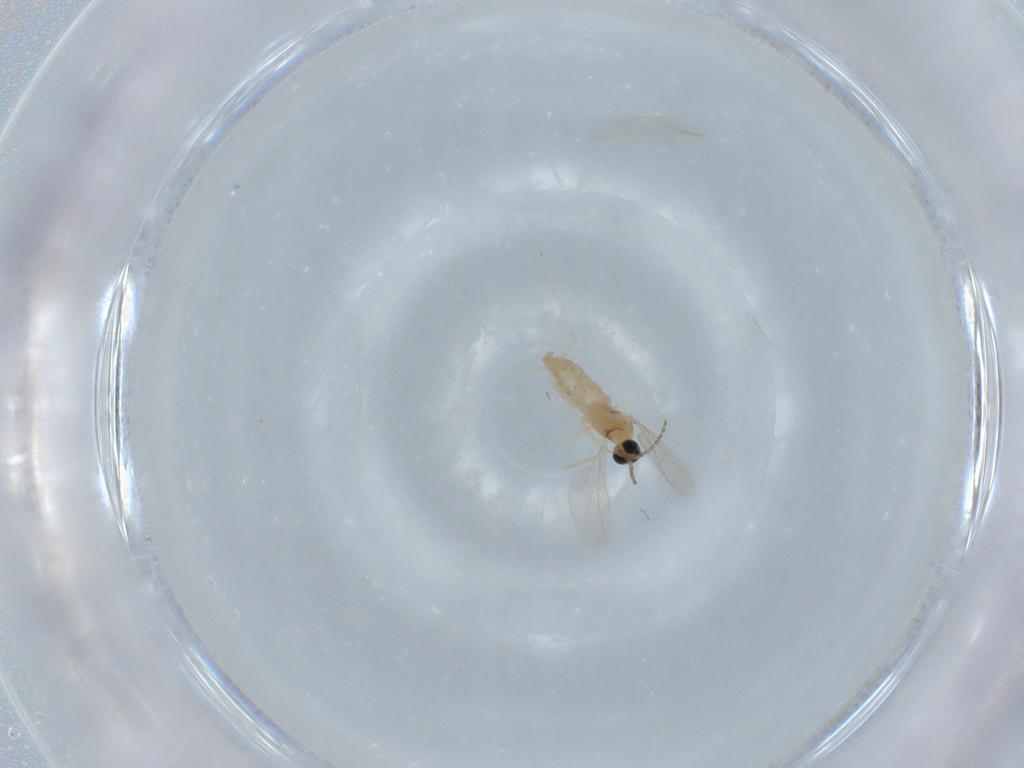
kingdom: Animalia
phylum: Arthropoda
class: Insecta
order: Diptera
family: Cecidomyiidae
